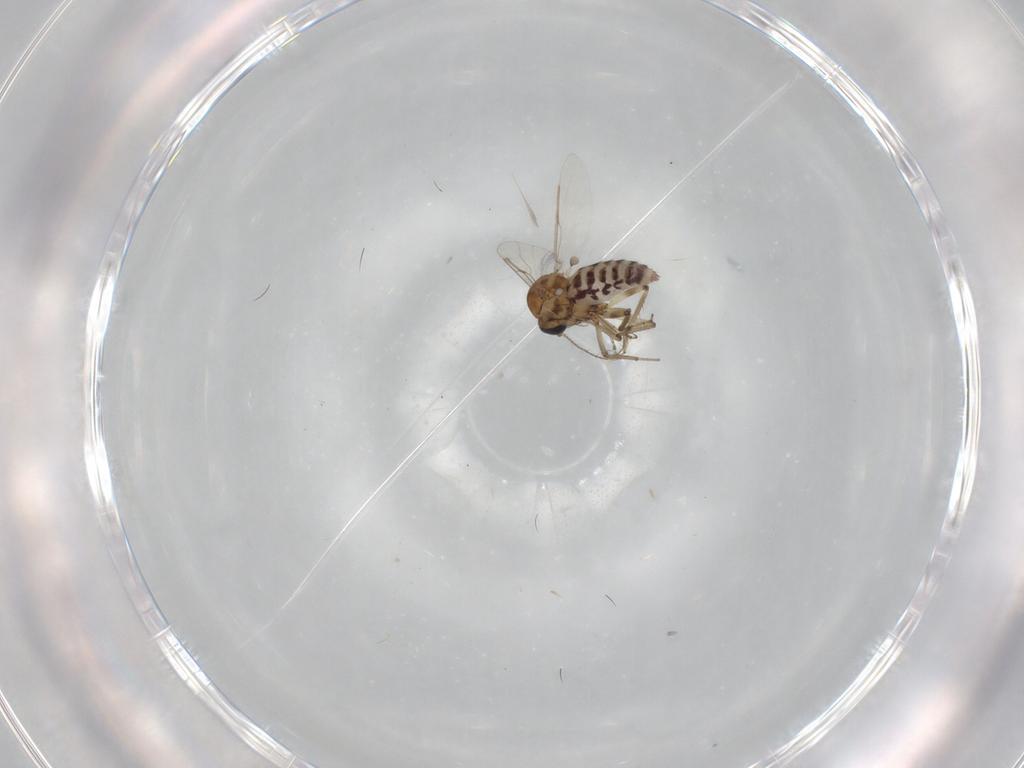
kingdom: Animalia
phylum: Arthropoda
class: Insecta
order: Diptera
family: Ceratopogonidae
